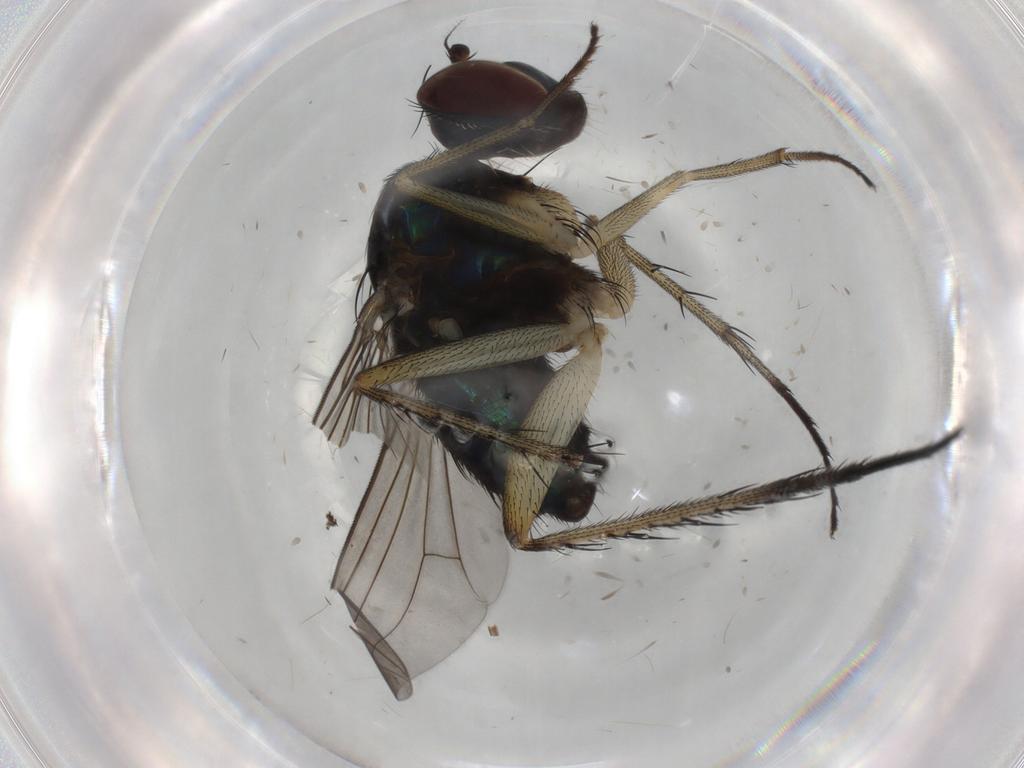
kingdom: Animalia
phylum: Arthropoda
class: Insecta
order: Diptera
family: Dolichopodidae
